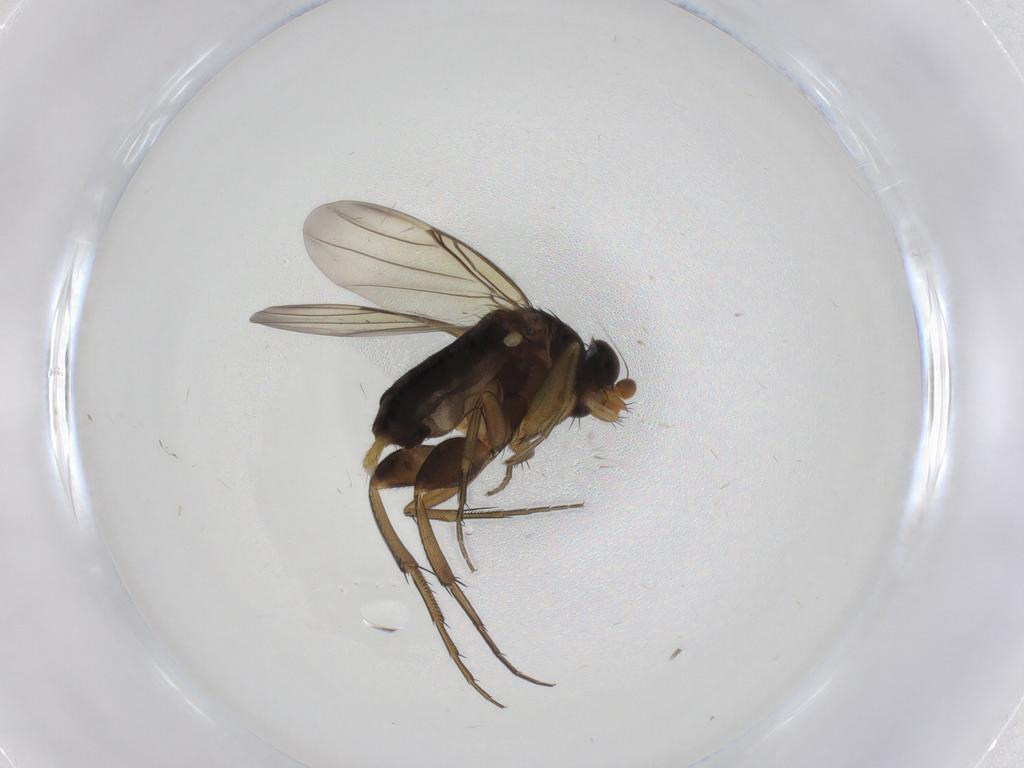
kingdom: Animalia
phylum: Arthropoda
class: Insecta
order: Diptera
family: Phoridae
